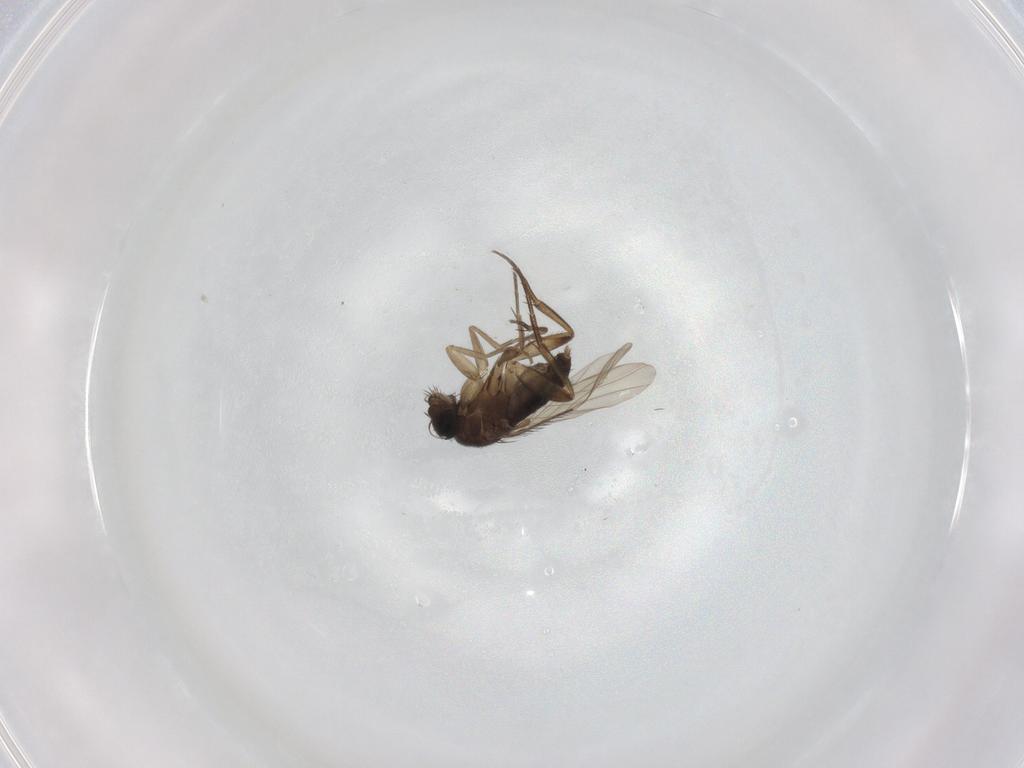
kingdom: Animalia
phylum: Arthropoda
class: Insecta
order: Diptera
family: Phoridae
